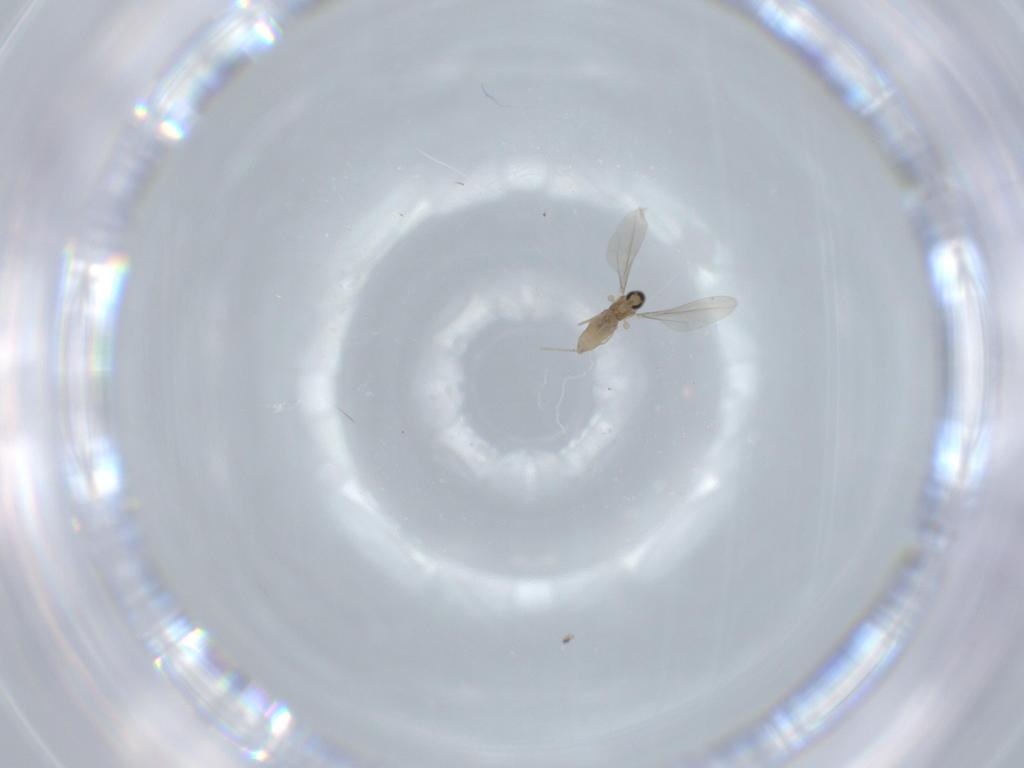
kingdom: Animalia
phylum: Arthropoda
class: Insecta
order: Diptera
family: Cecidomyiidae
